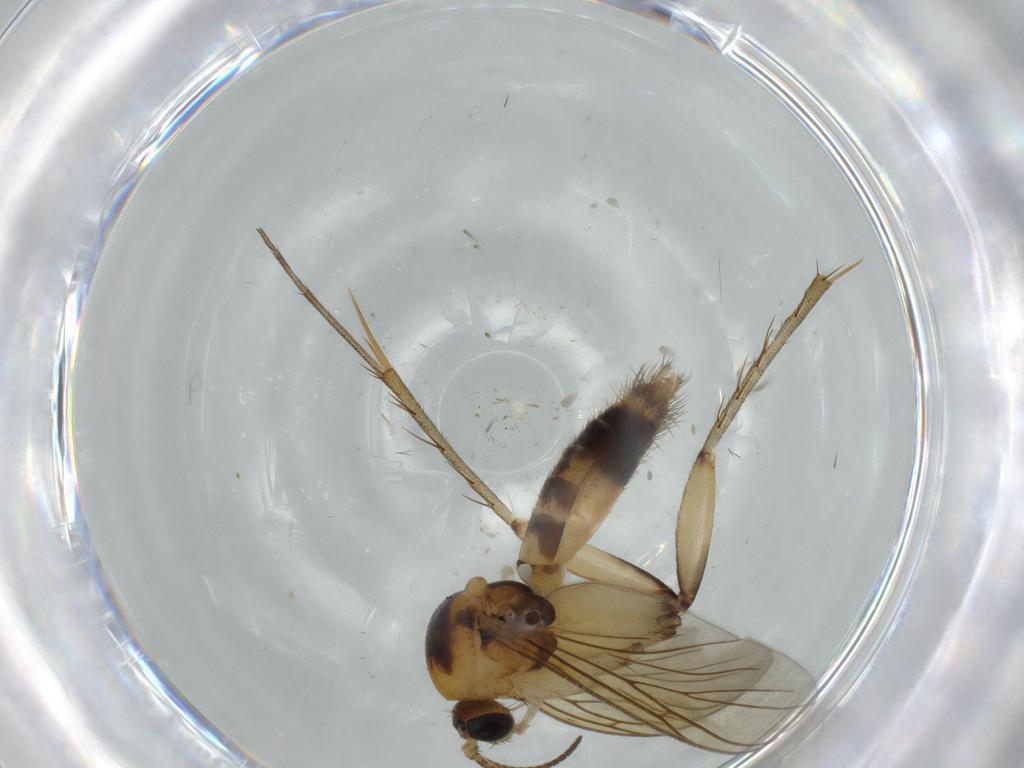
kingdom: Animalia
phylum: Arthropoda
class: Insecta
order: Diptera
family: Mycetophilidae
